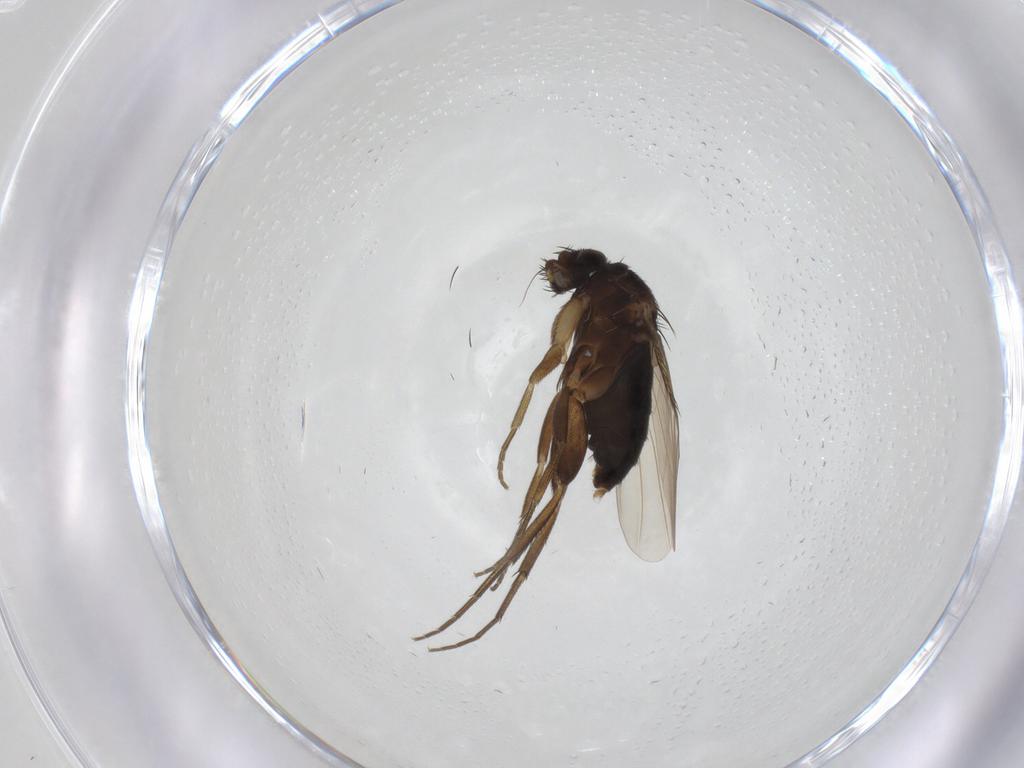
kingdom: Animalia
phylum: Arthropoda
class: Insecta
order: Diptera
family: Phoridae
